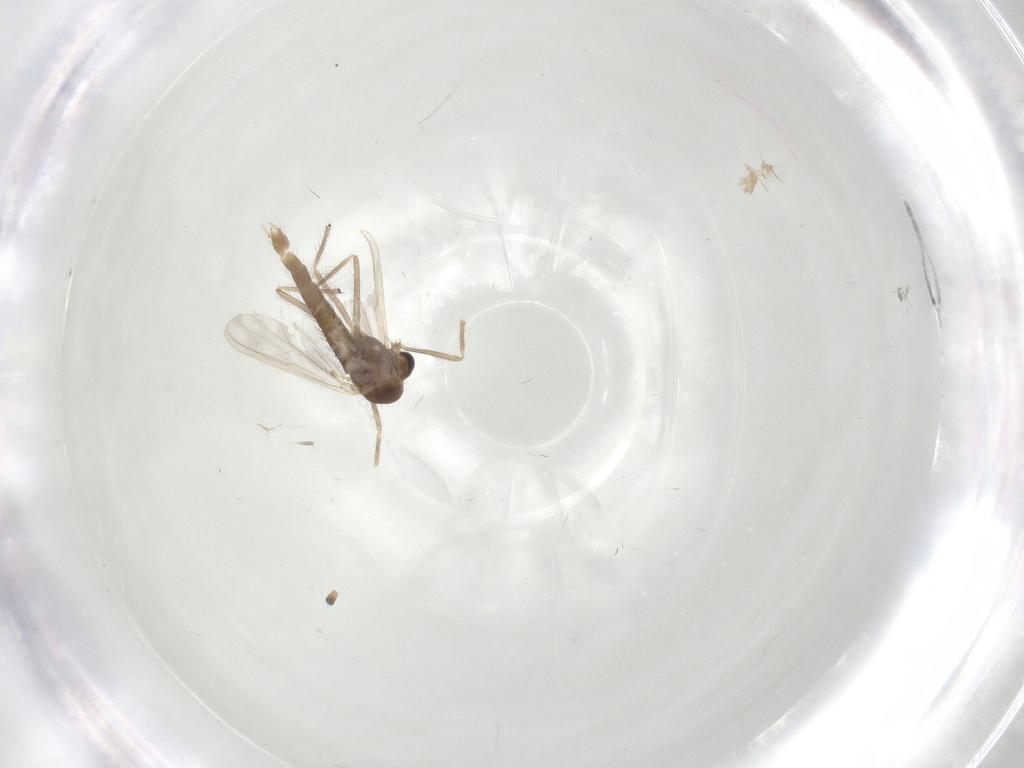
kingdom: Animalia
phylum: Arthropoda
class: Insecta
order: Diptera
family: Chironomidae
